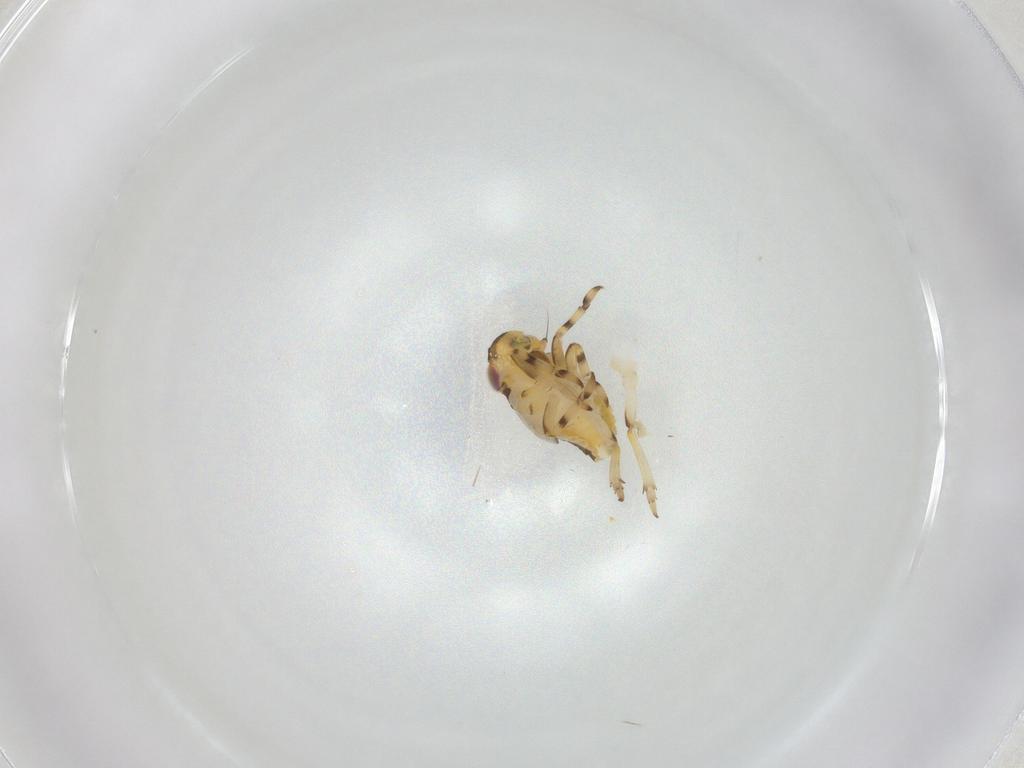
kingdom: Animalia
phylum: Arthropoda
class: Insecta
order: Hemiptera
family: Issidae
